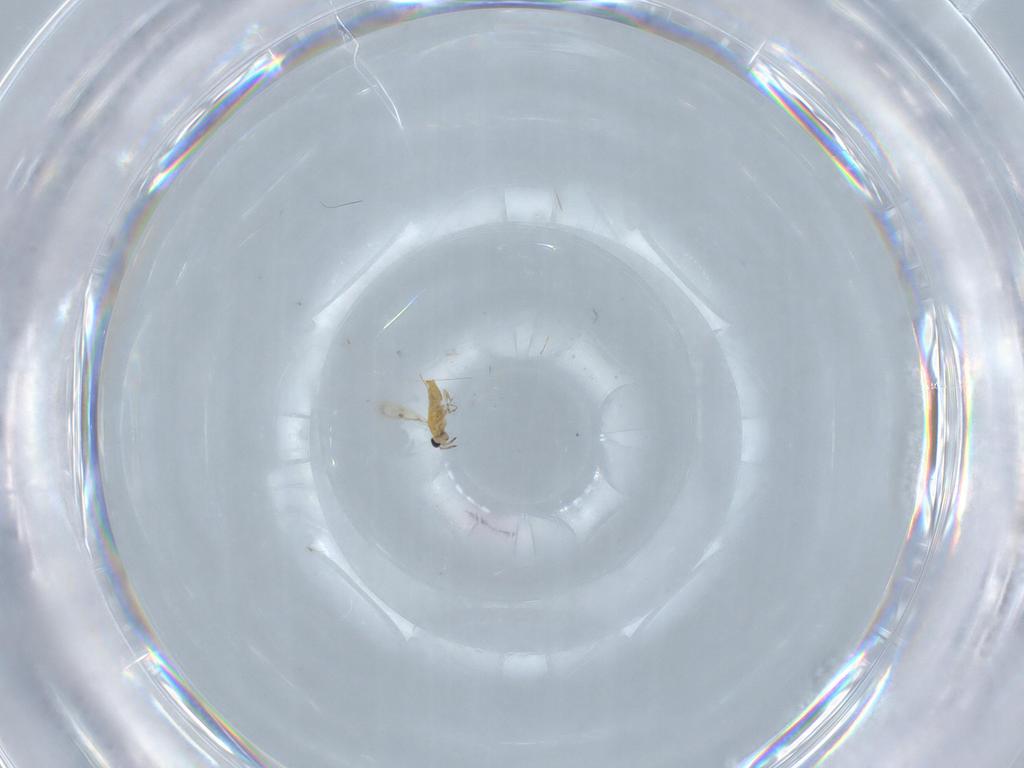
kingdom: Animalia
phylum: Arthropoda
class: Insecta
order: Hymenoptera
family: Trichogrammatidae
